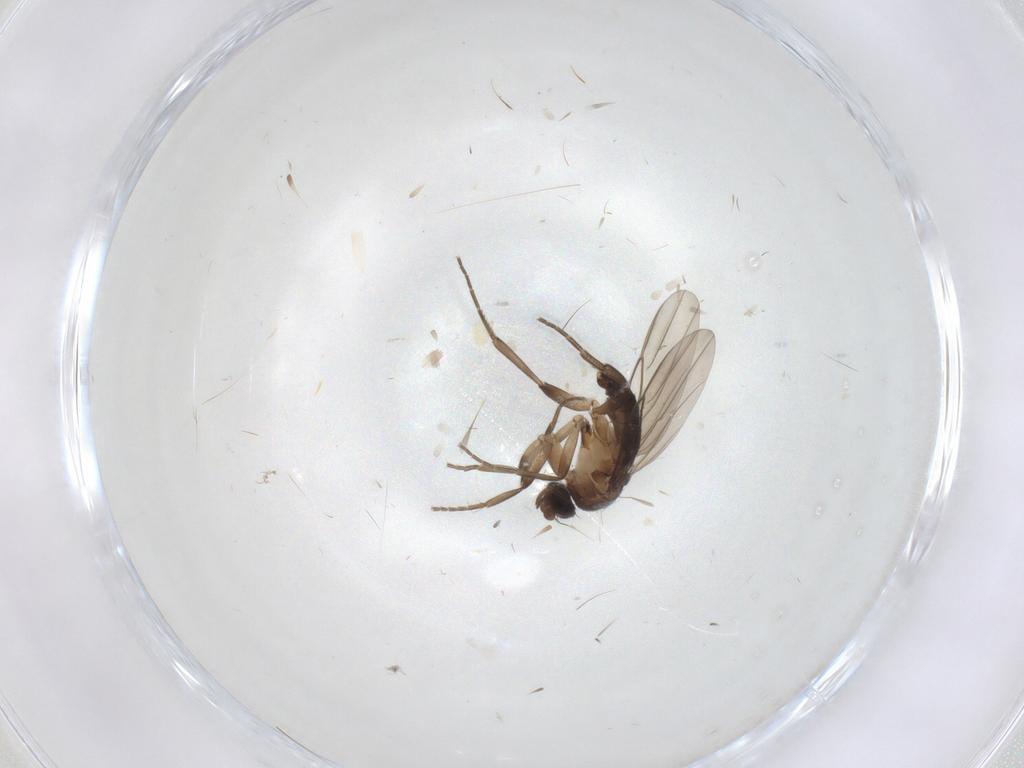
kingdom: Animalia
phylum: Arthropoda
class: Insecta
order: Diptera
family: Phoridae
